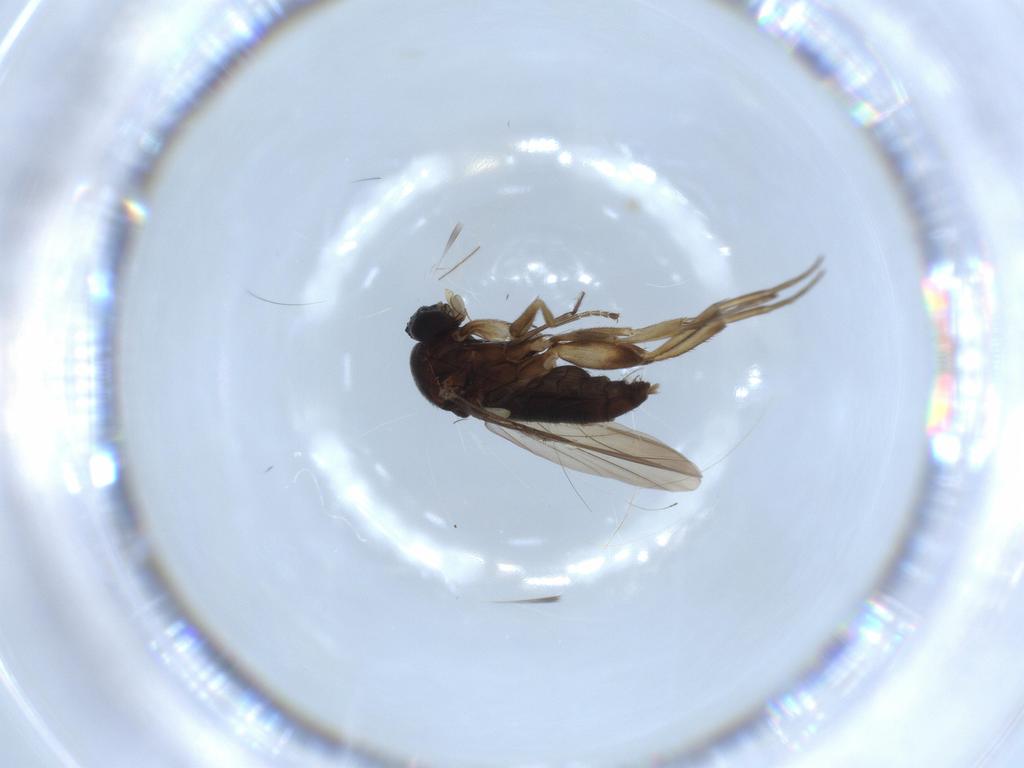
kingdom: Animalia
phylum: Arthropoda
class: Insecta
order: Diptera
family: Phoridae
